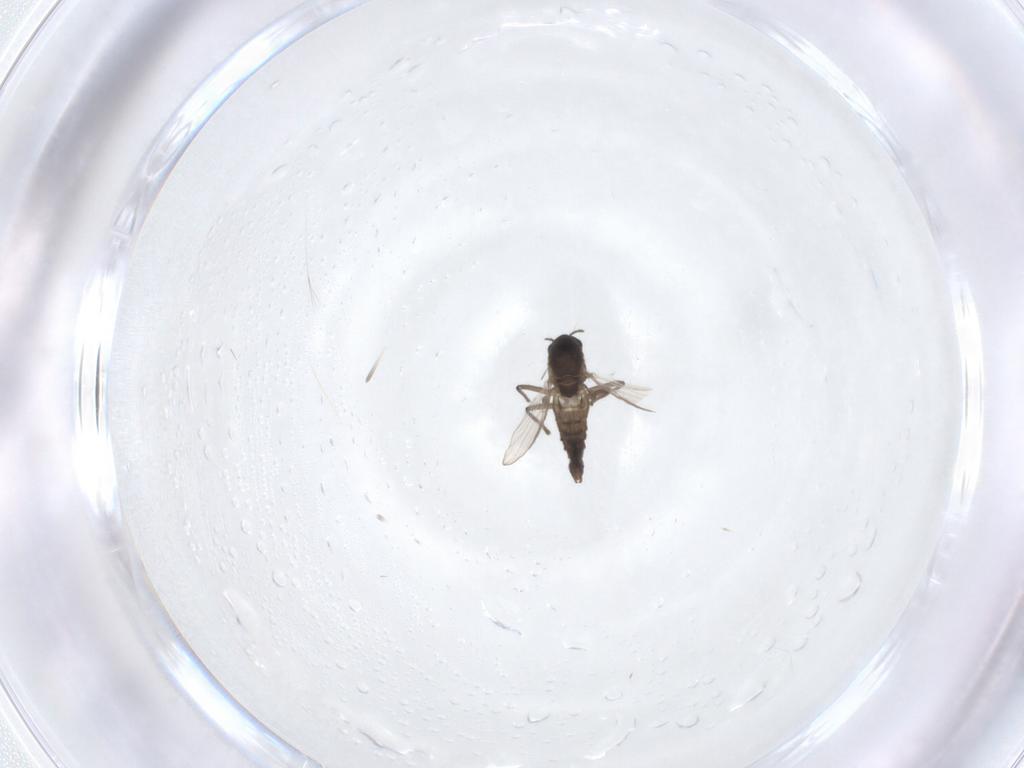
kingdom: Animalia
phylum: Arthropoda
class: Insecta
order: Diptera
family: Chironomidae
